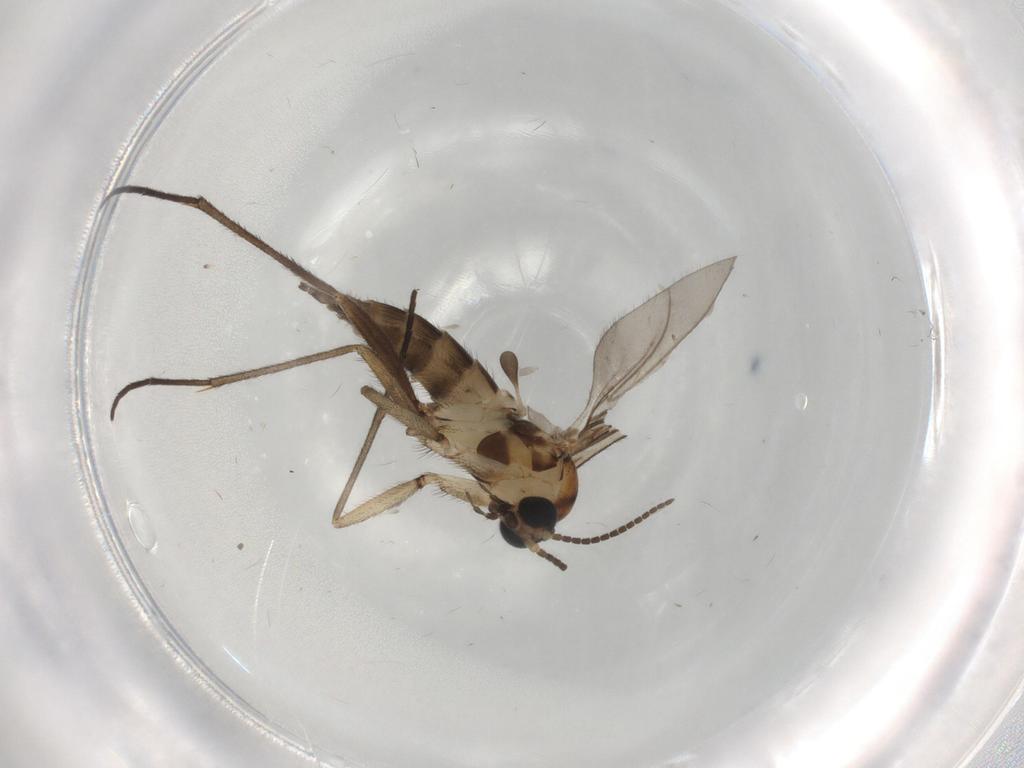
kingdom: Animalia
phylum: Arthropoda
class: Insecta
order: Diptera
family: Sciaridae
